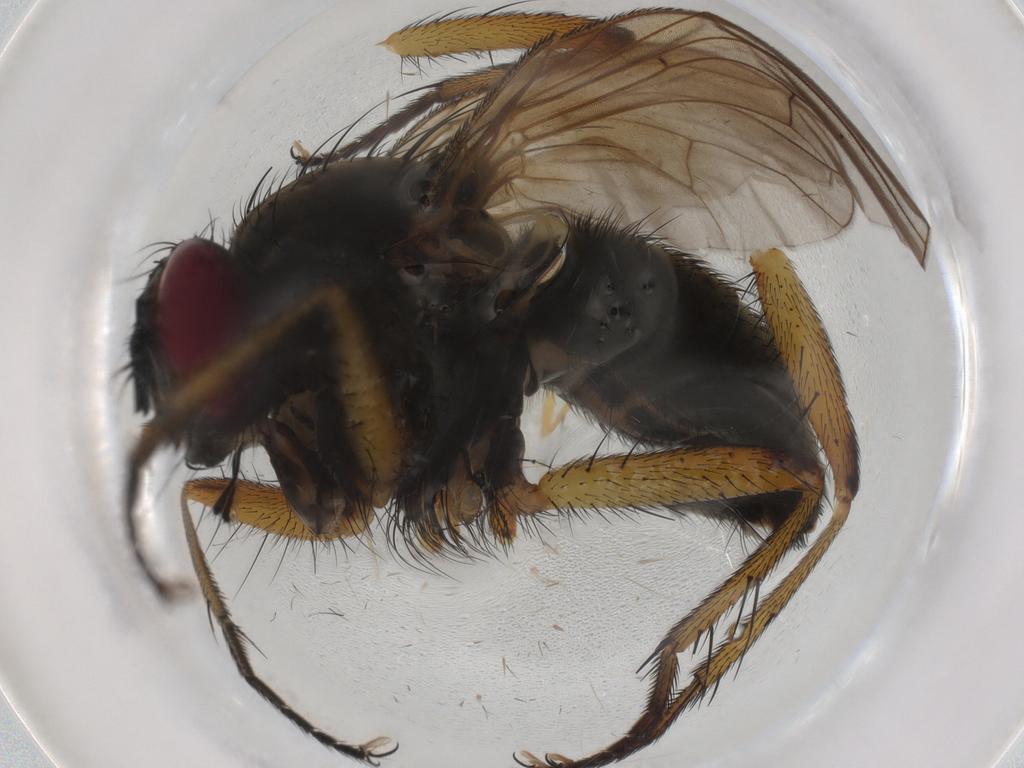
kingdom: Animalia
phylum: Arthropoda
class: Insecta
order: Diptera
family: Muscidae
